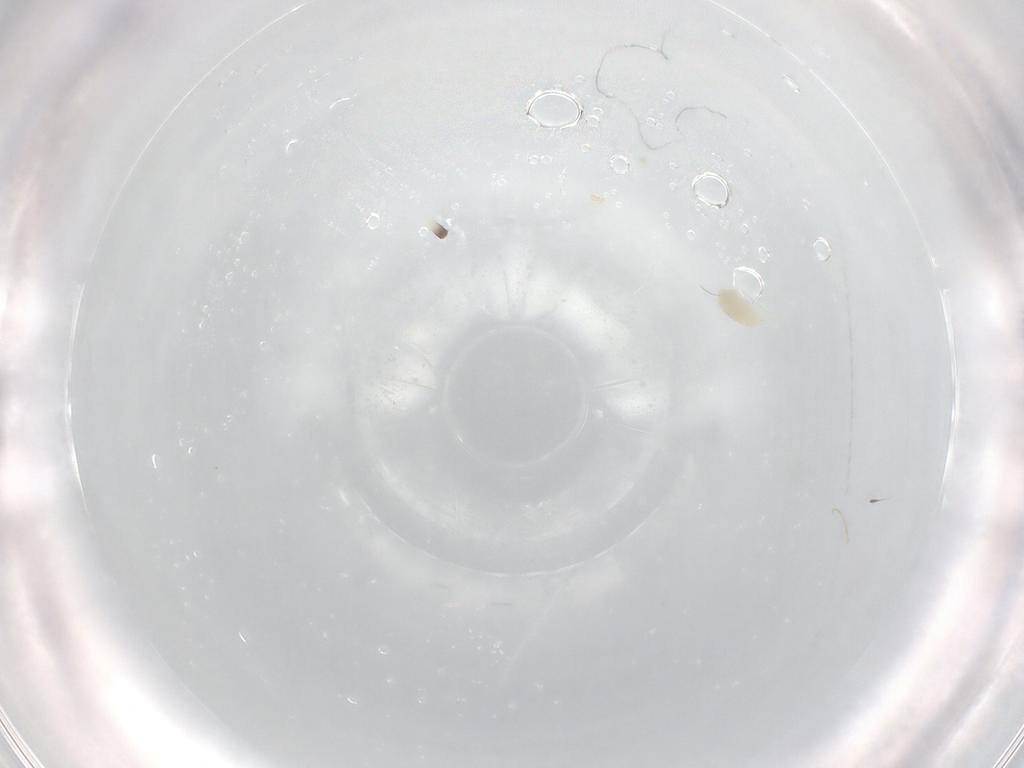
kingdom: Animalia
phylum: Arthropoda
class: Arachnida
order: Trombidiformes
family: Eupodidae
